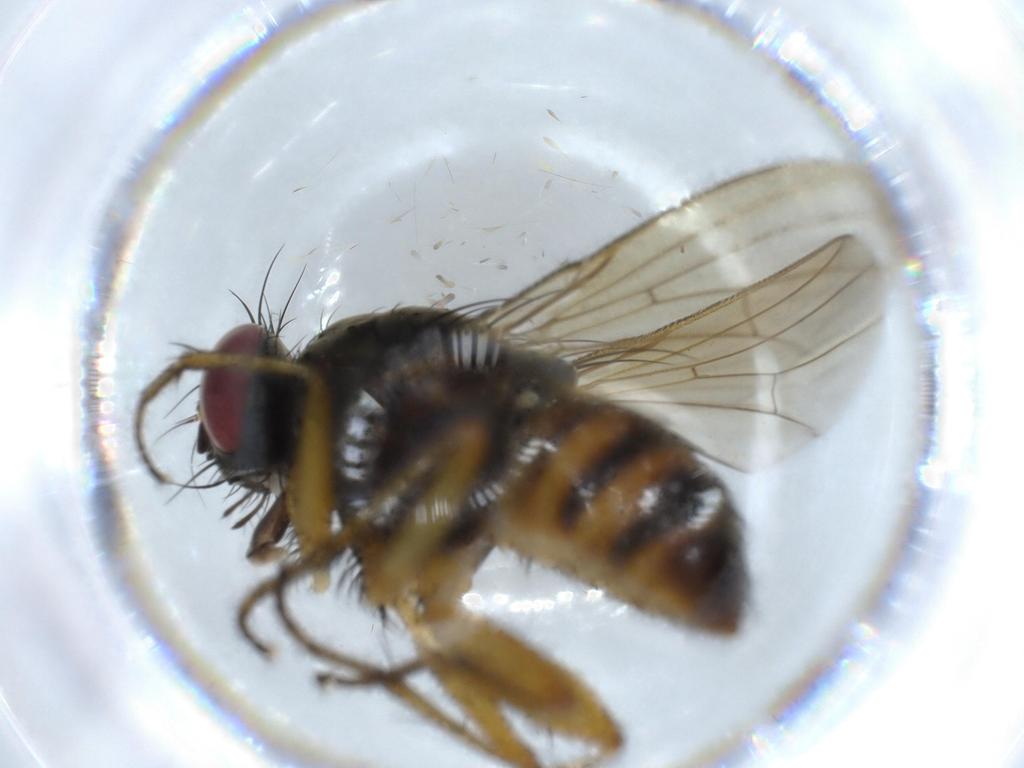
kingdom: Animalia
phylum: Arthropoda
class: Insecta
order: Diptera
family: Muscidae
